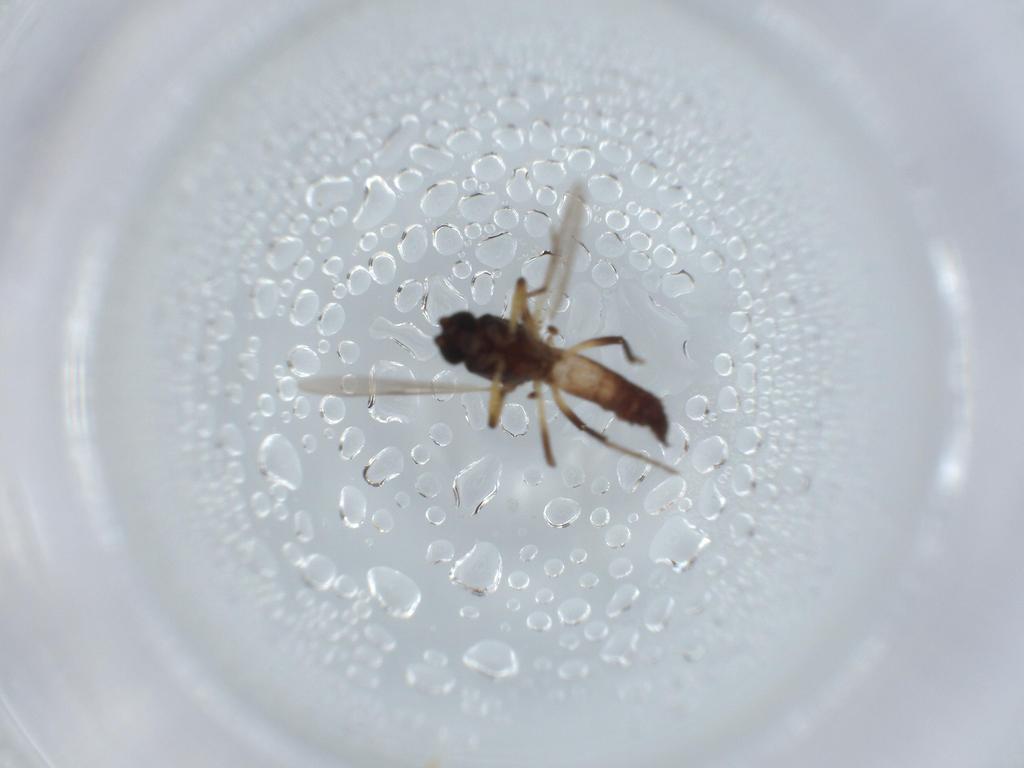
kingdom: Animalia
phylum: Arthropoda
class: Insecta
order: Diptera
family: Ceratopogonidae
